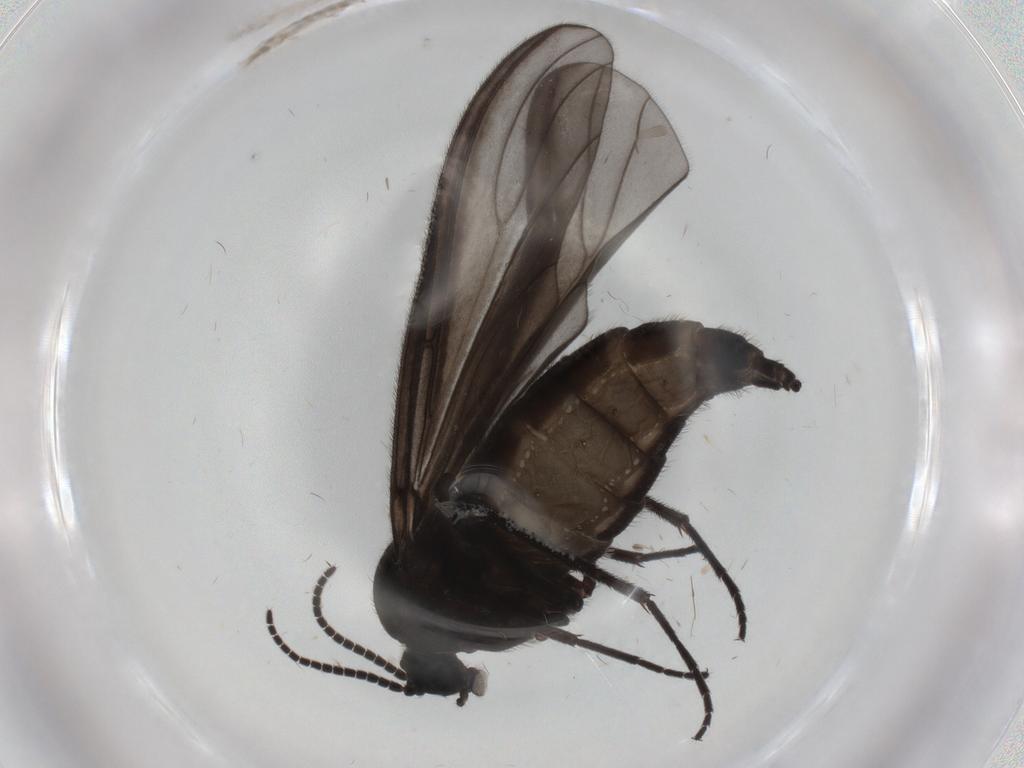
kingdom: Animalia
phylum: Arthropoda
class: Insecta
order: Diptera
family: Sciaridae
